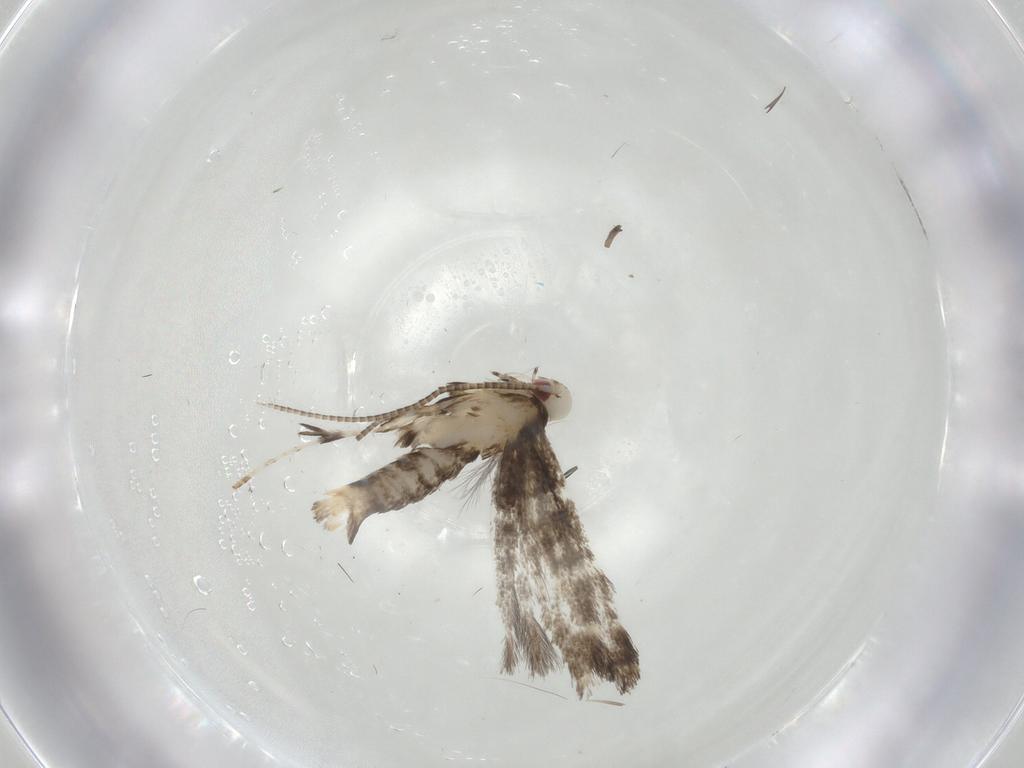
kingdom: Animalia
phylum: Arthropoda
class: Insecta
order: Lepidoptera
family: Gracillariidae
